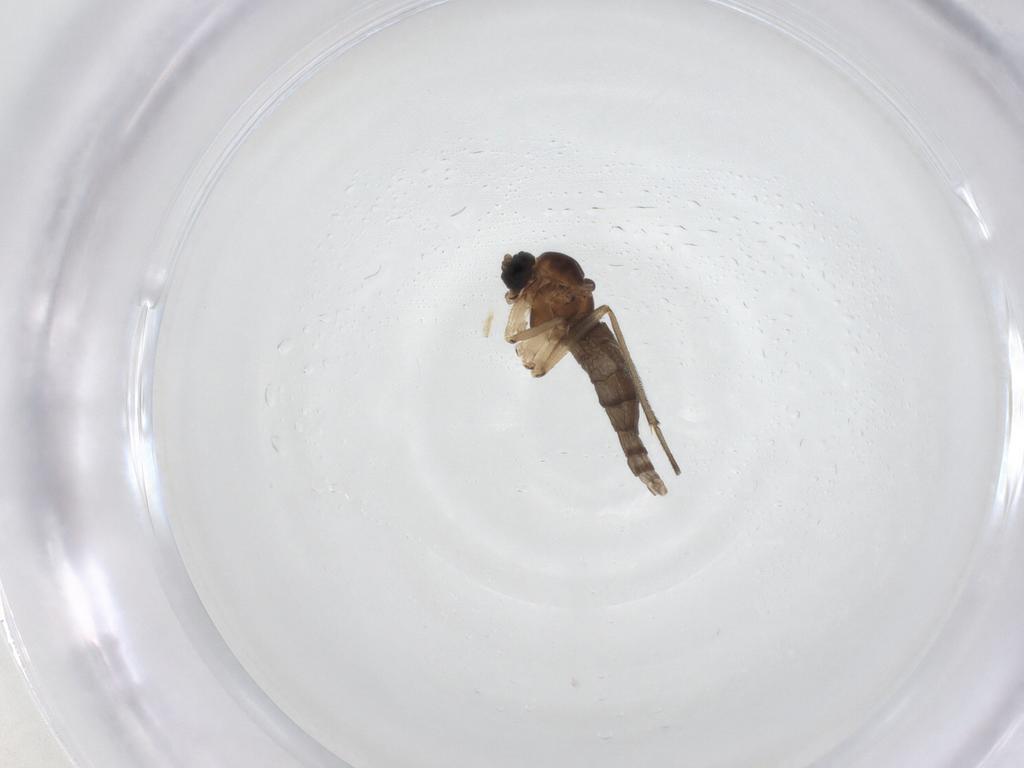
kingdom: Animalia
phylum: Arthropoda
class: Insecta
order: Diptera
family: Sciaridae
